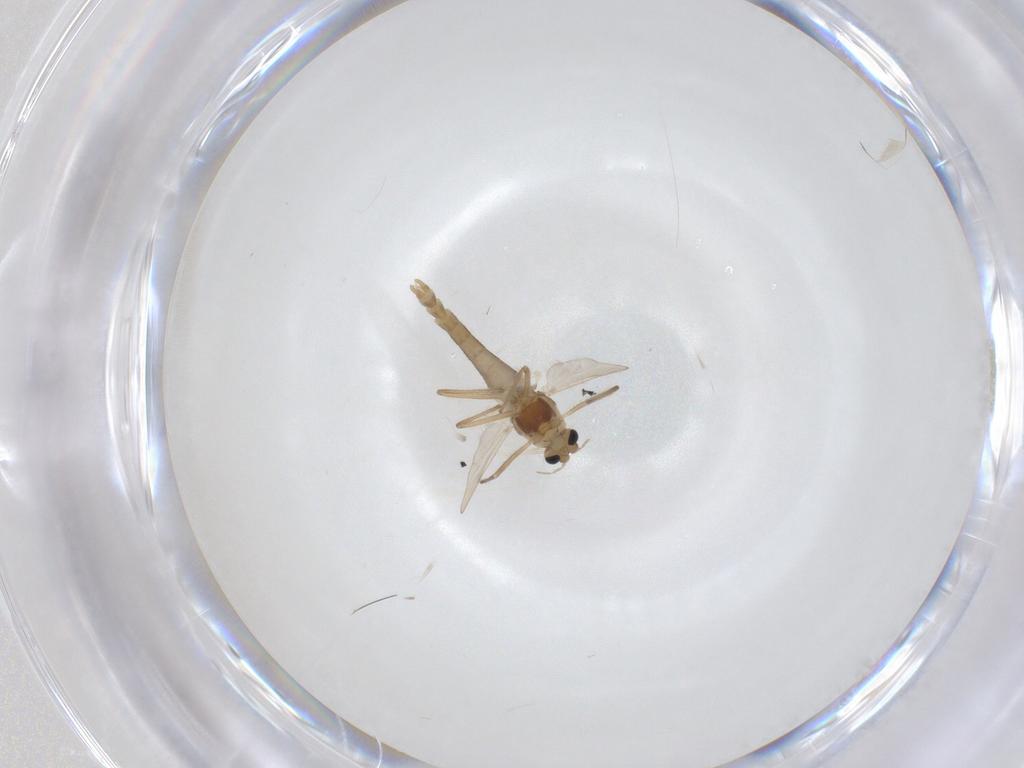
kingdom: Animalia
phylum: Arthropoda
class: Insecta
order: Diptera
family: Chironomidae
